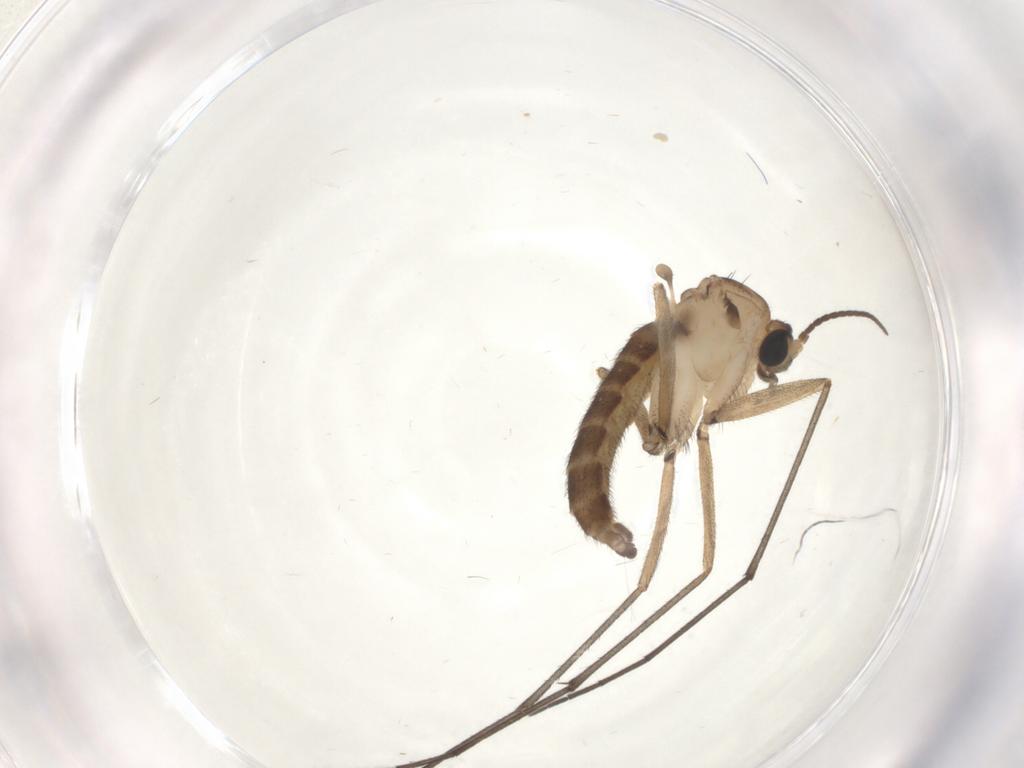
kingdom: Animalia
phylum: Arthropoda
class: Insecta
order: Diptera
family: Sciaridae
